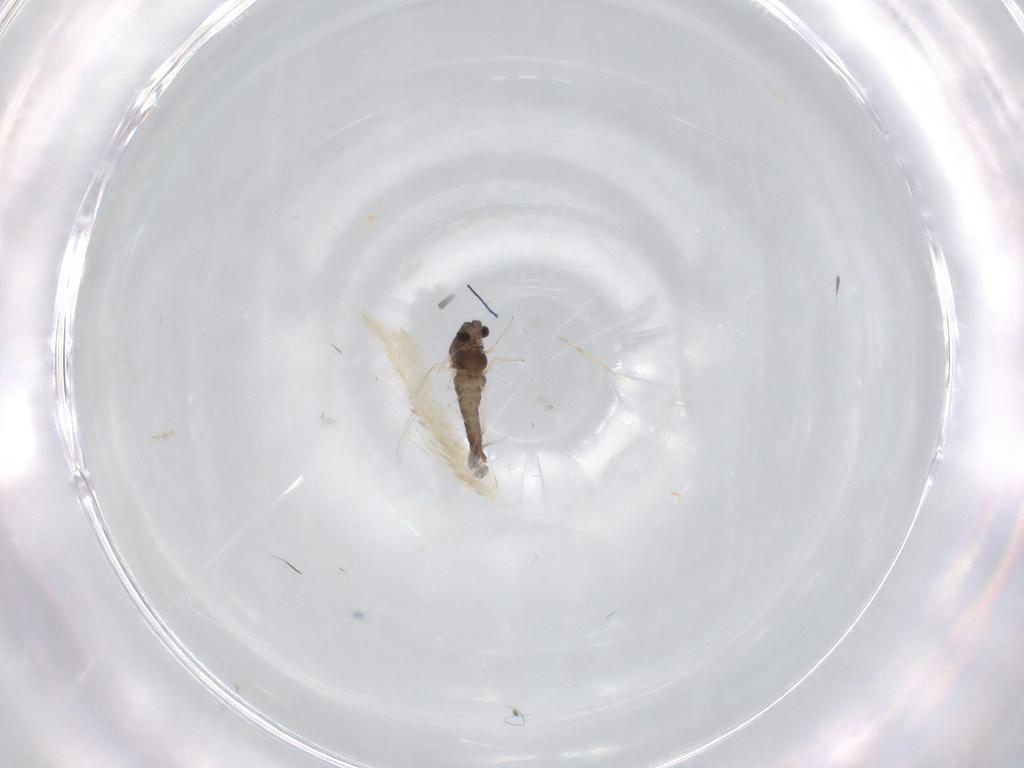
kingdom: Animalia
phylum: Arthropoda
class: Insecta
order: Diptera
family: Chironomidae
